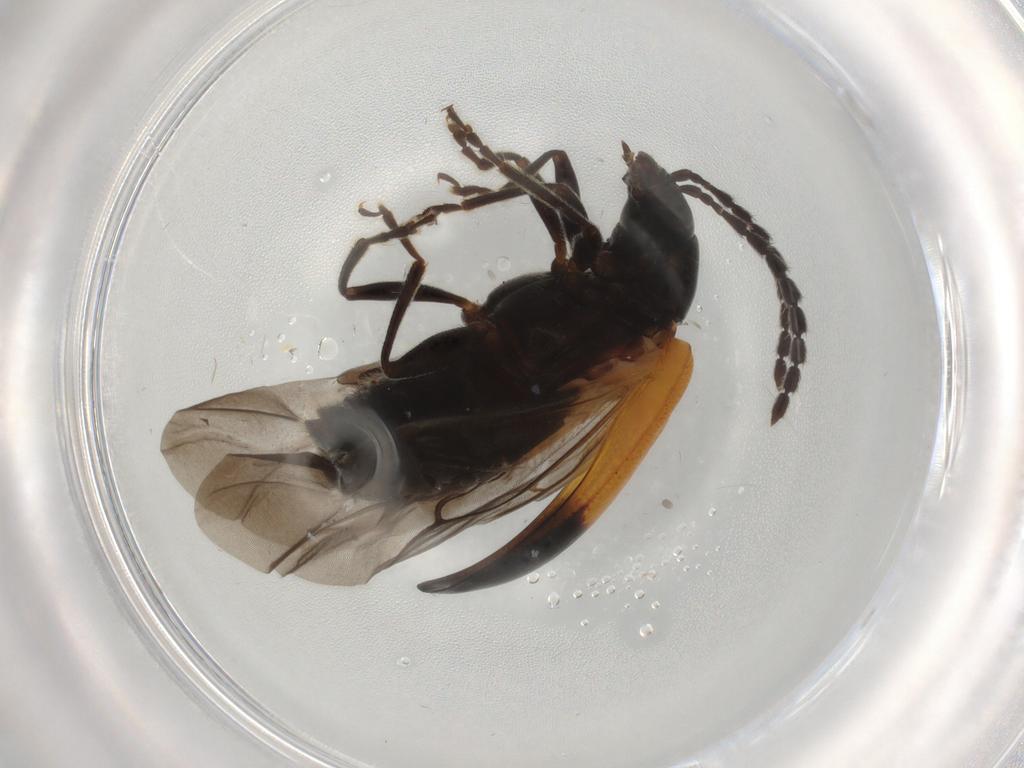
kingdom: Animalia
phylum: Arthropoda
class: Insecta
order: Coleoptera
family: Chrysomelidae
